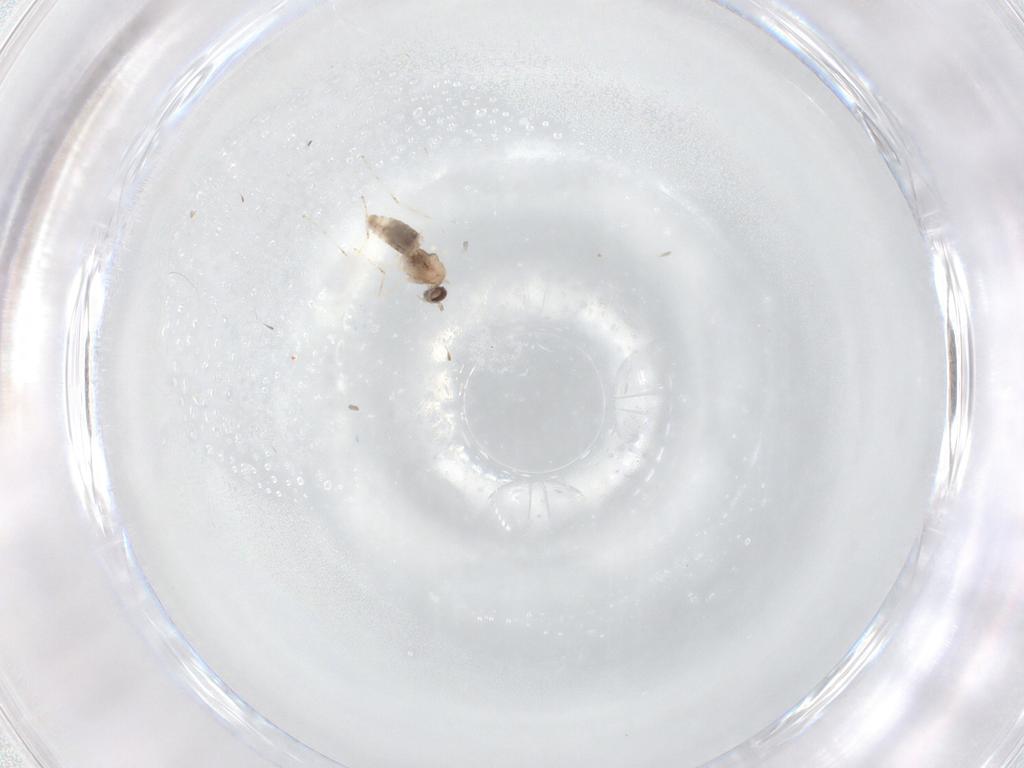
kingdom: Animalia
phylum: Arthropoda
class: Insecta
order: Diptera
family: Cecidomyiidae
